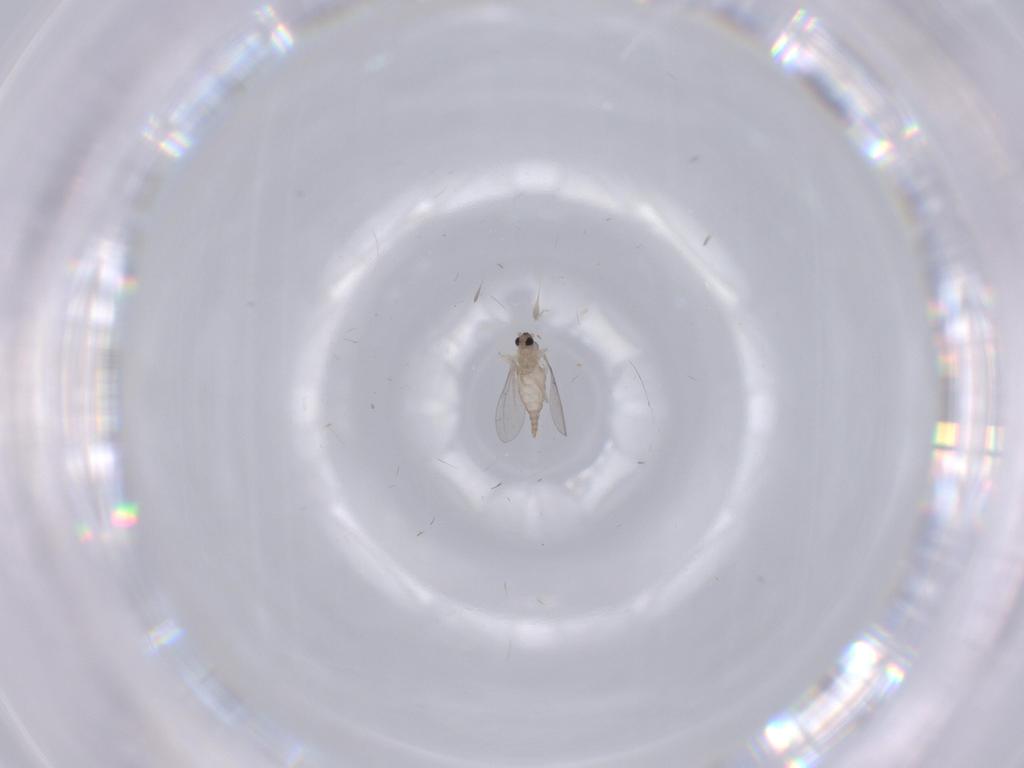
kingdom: Animalia
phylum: Arthropoda
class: Insecta
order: Diptera
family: Cecidomyiidae
